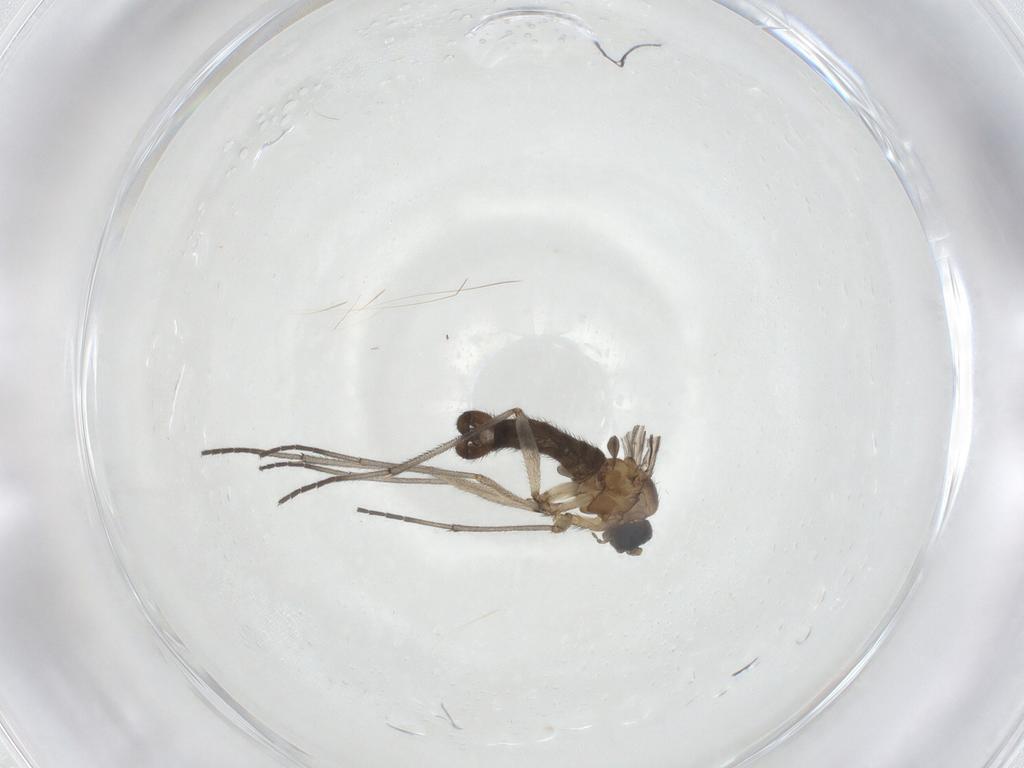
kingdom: Animalia
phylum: Arthropoda
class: Insecta
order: Diptera
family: Sciaridae
